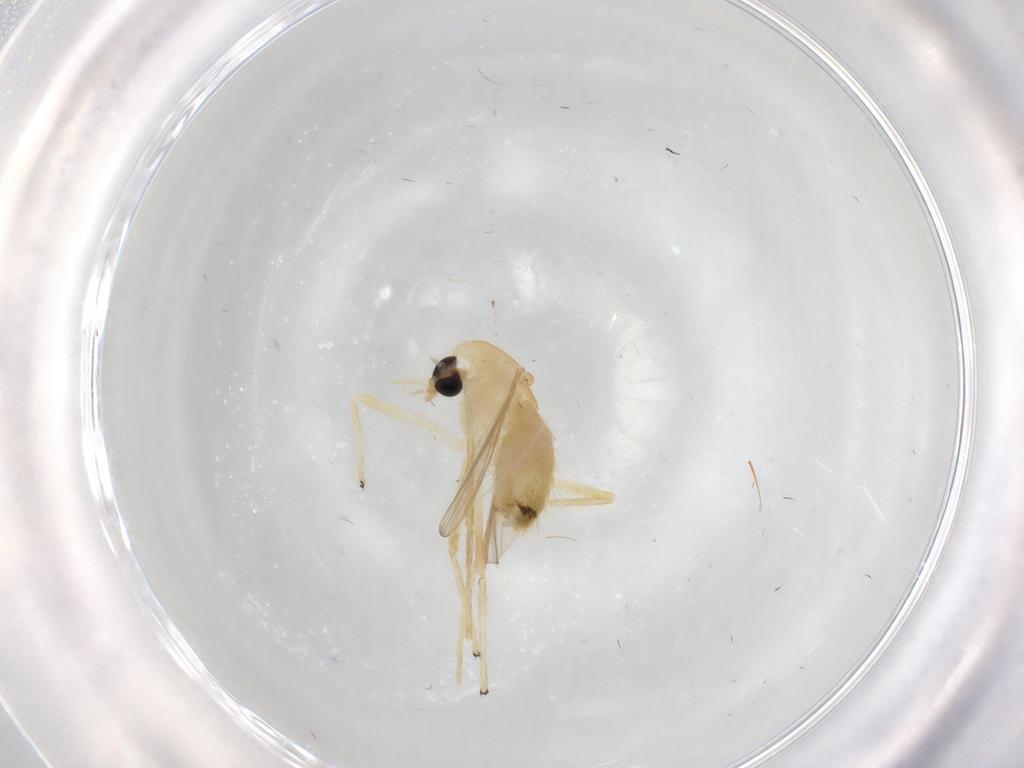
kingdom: Animalia
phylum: Arthropoda
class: Insecta
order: Diptera
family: Chironomidae
